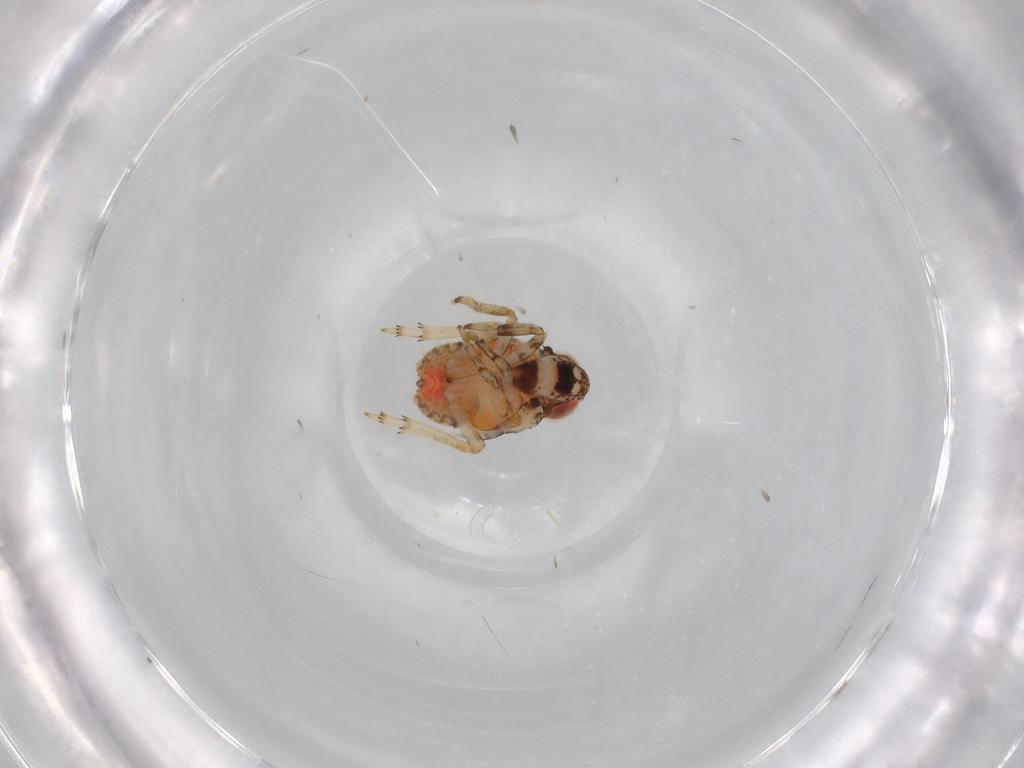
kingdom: Animalia
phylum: Arthropoda
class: Insecta
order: Hemiptera
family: Issidae
